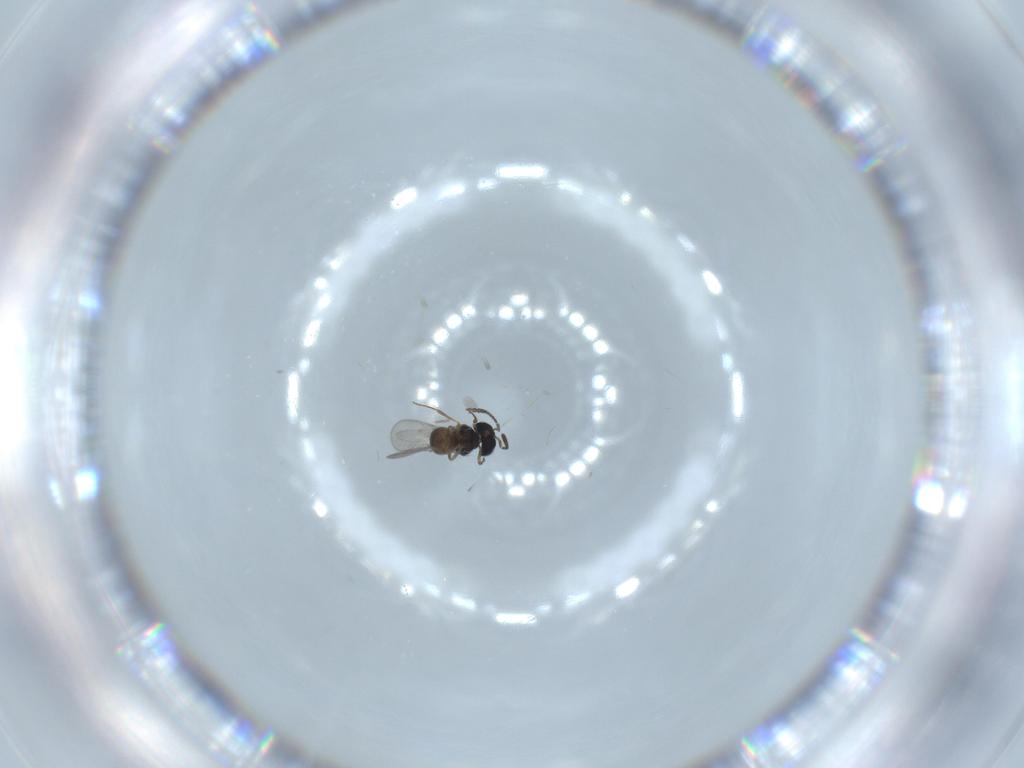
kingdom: Animalia
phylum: Arthropoda
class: Insecta
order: Hymenoptera
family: Scelionidae
